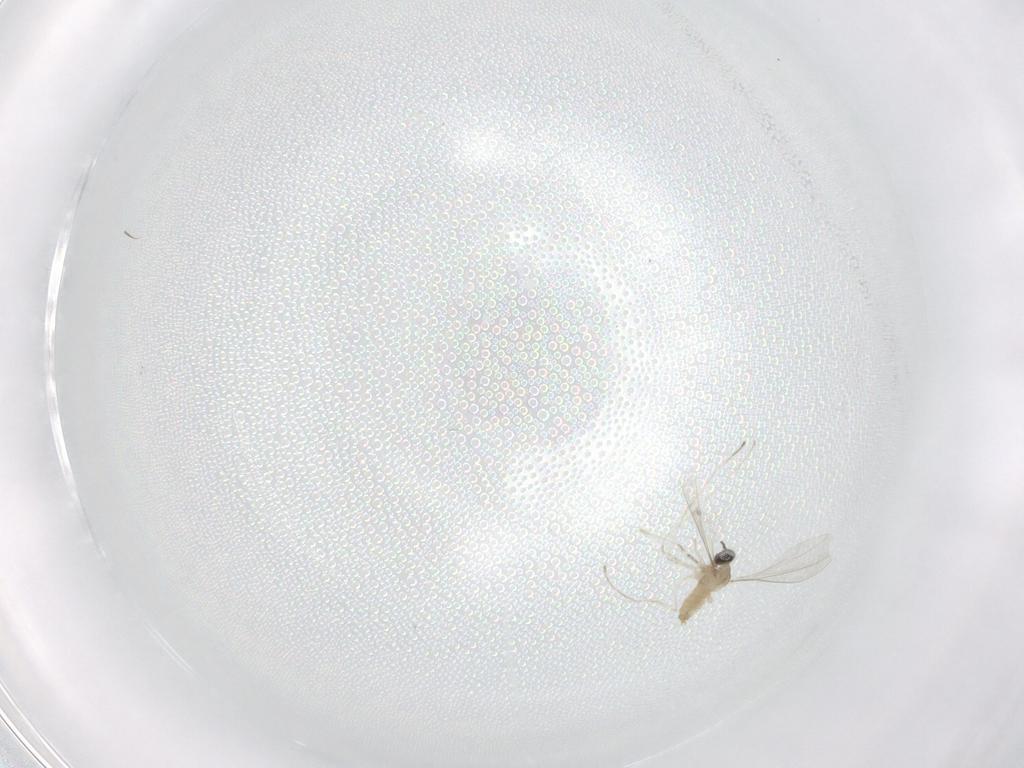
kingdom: Animalia
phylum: Arthropoda
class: Insecta
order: Diptera
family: Cecidomyiidae
